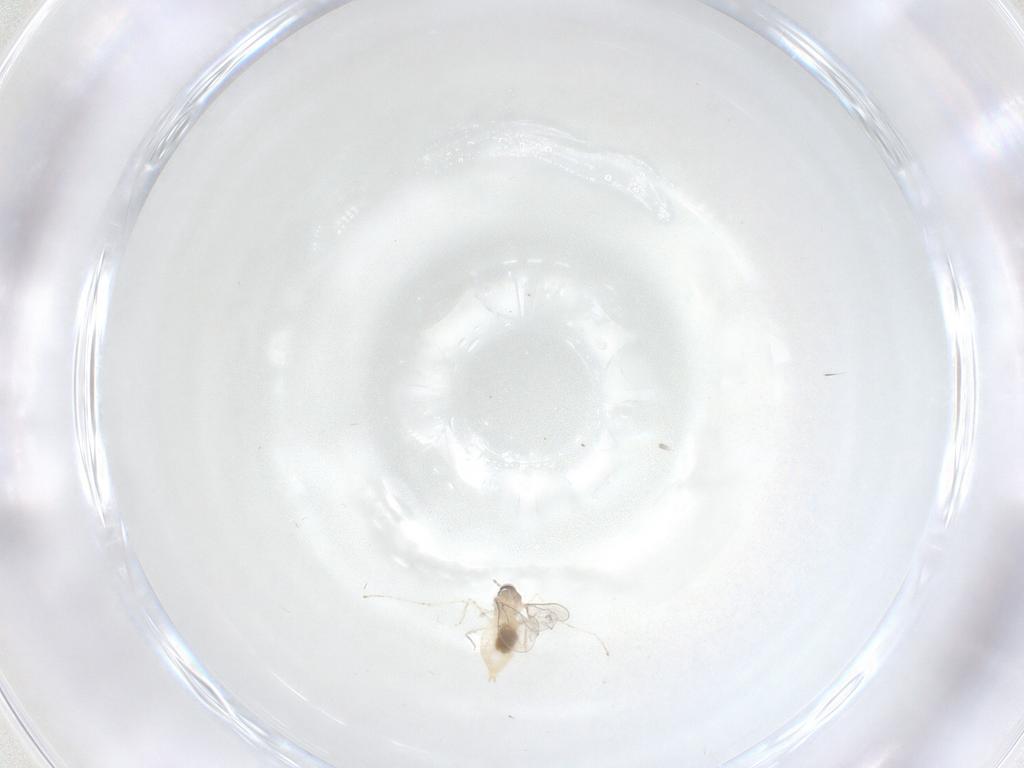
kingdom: Animalia
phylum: Arthropoda
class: Insecta
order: Diptera
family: Cecidomyiidae
